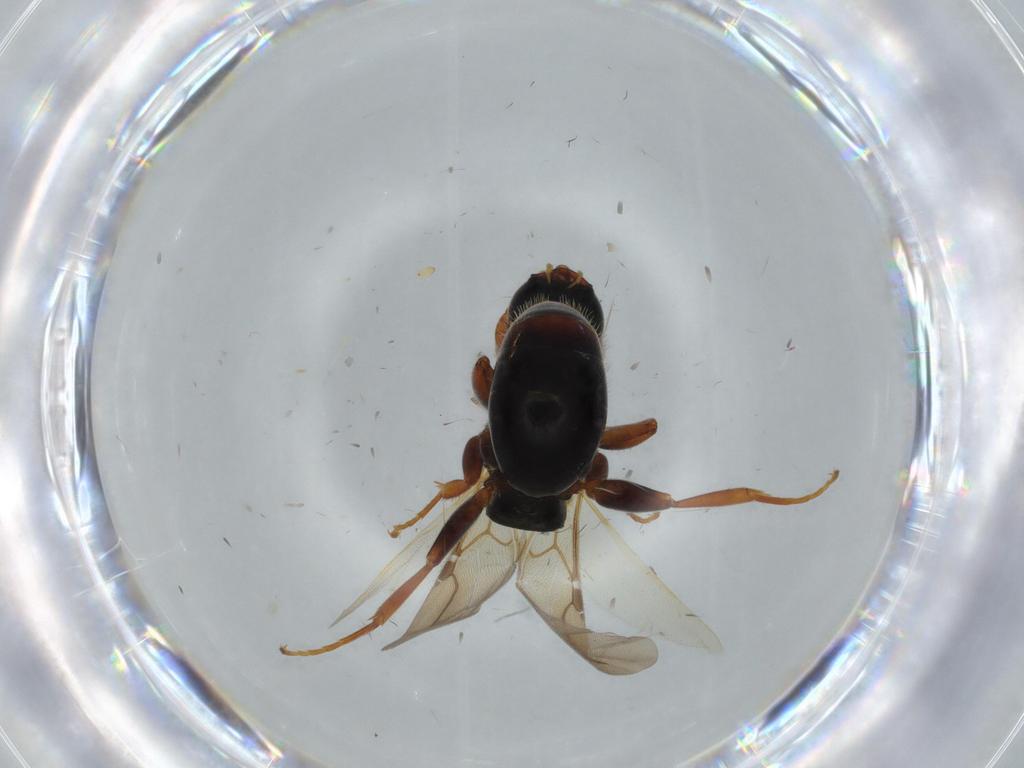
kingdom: Animalia
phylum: Arthropoda
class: Insecta
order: Hymenoptera
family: Bethylidae
